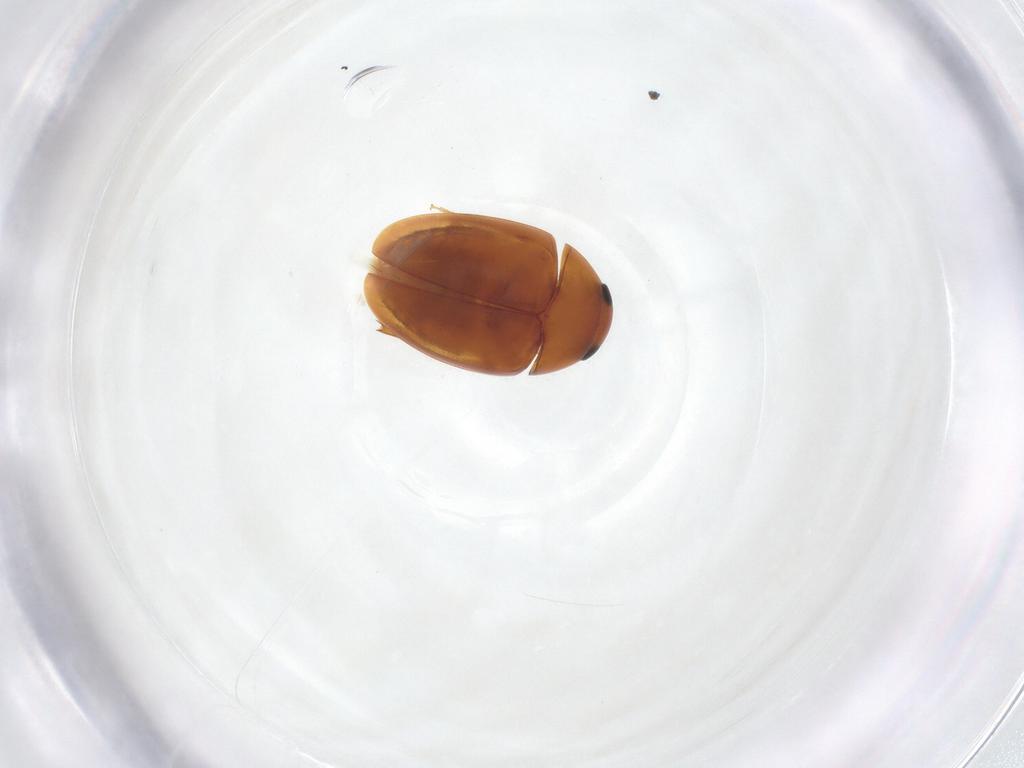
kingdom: Animalia
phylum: Arthropoda
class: Insecta
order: Coleoptera
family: Phalacridae
